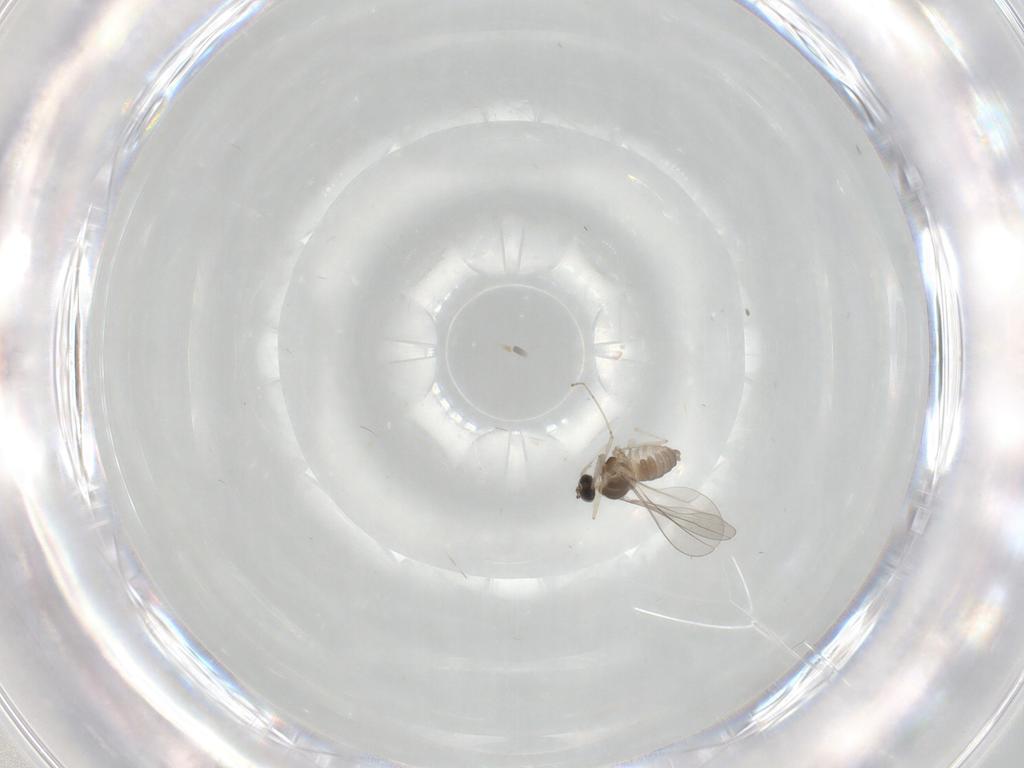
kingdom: Animalia
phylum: Arthropoda
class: Insecta
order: Diptera
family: Cecidomyiidae
